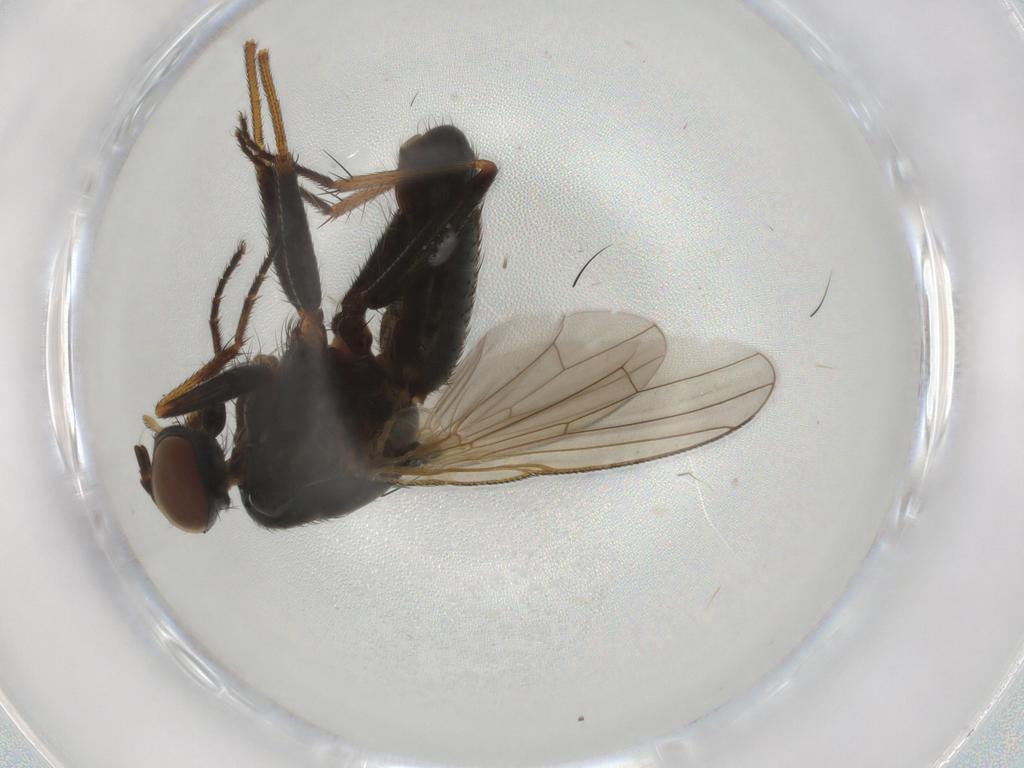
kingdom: Animalia
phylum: Arthropoda
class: Insecta
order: Diptera
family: Muscidae
